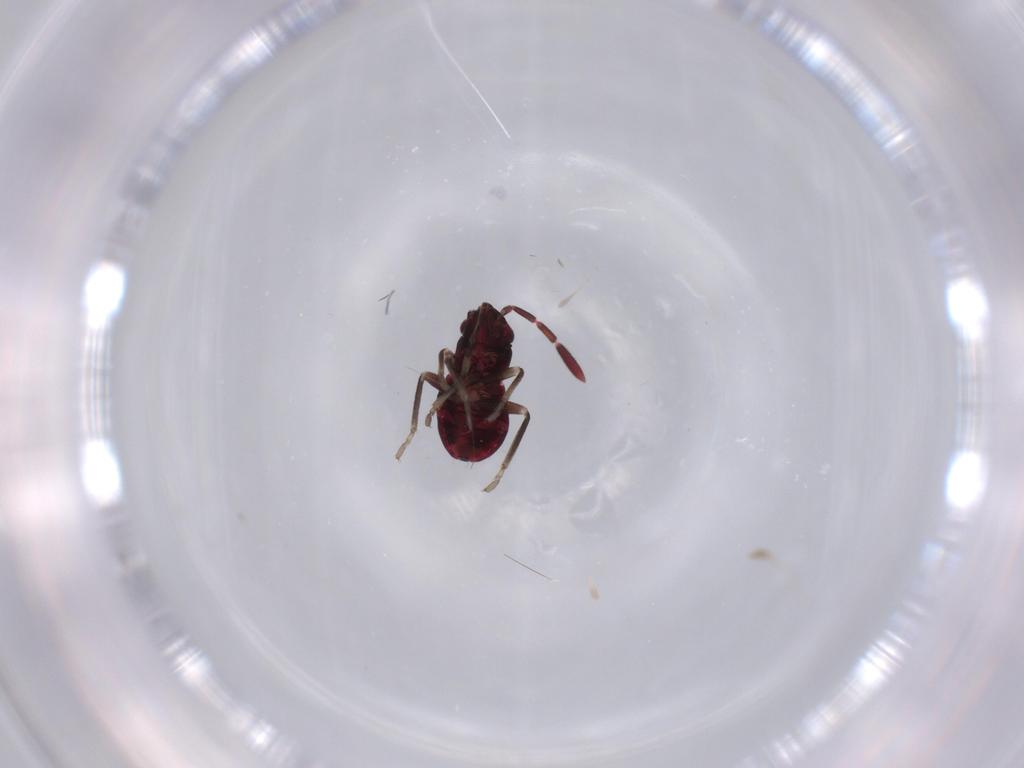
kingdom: Animalia
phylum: Arthropoda
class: Insecta
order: Hemiptera
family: Rhyparochromidae
